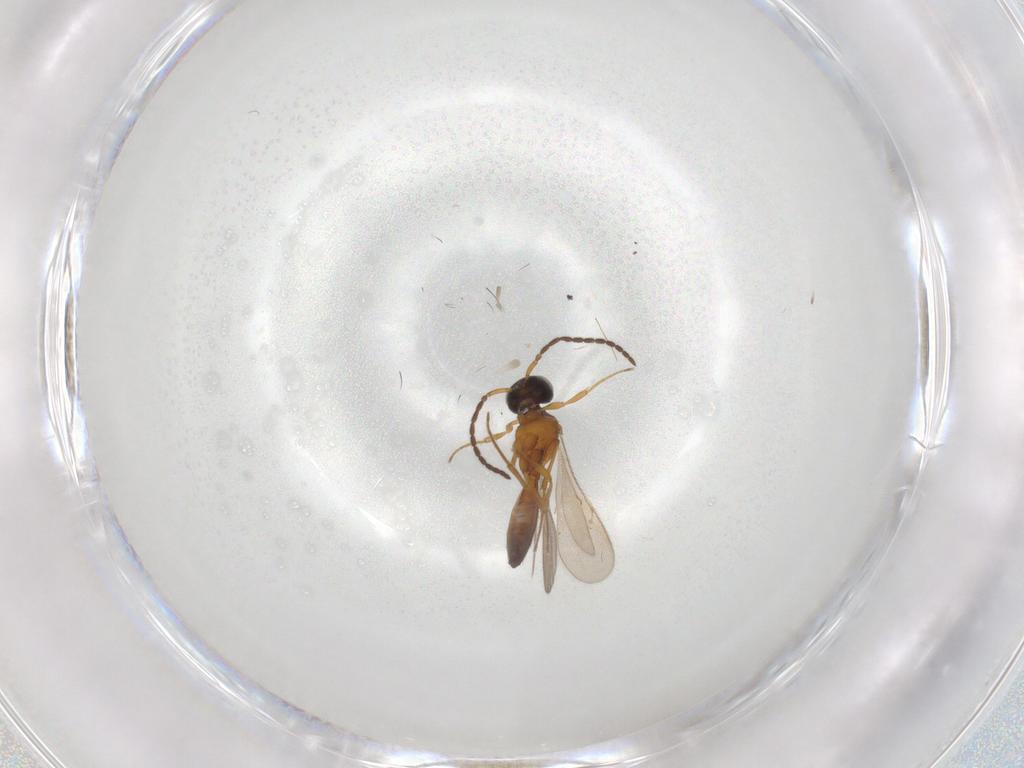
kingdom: Animalia
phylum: Arthropoda
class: Insecta
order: Hymenoptera
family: Scelionidae
